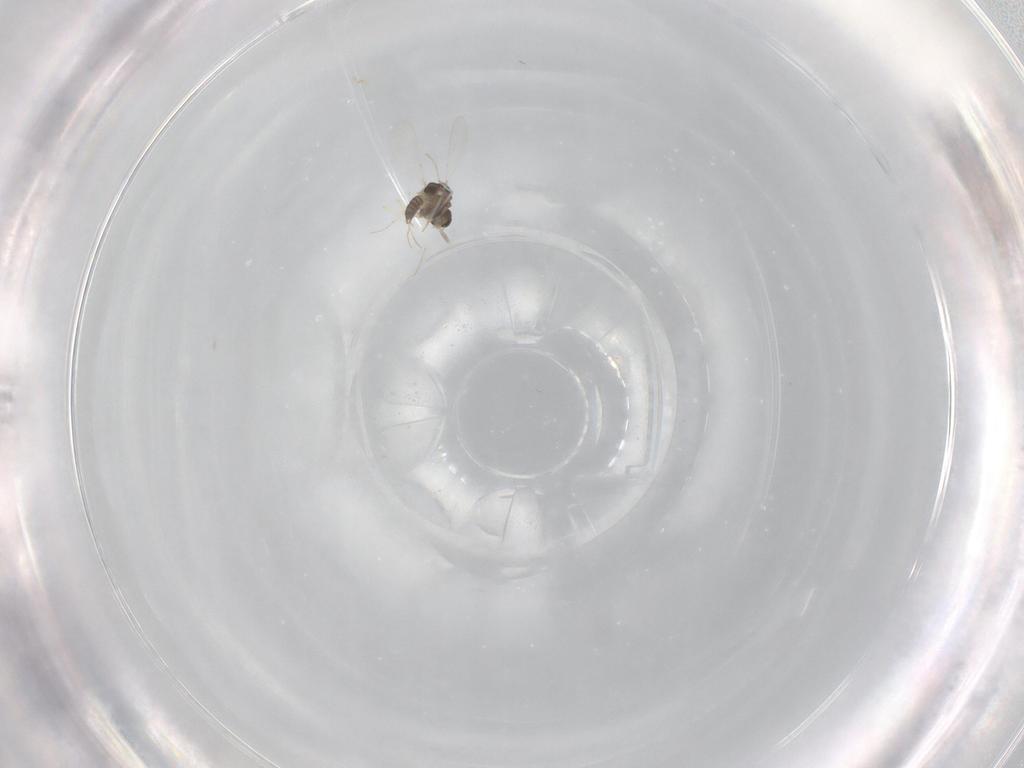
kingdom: Animalia
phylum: Arthropoda
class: Insecta
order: Diptera
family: Chironomidae
